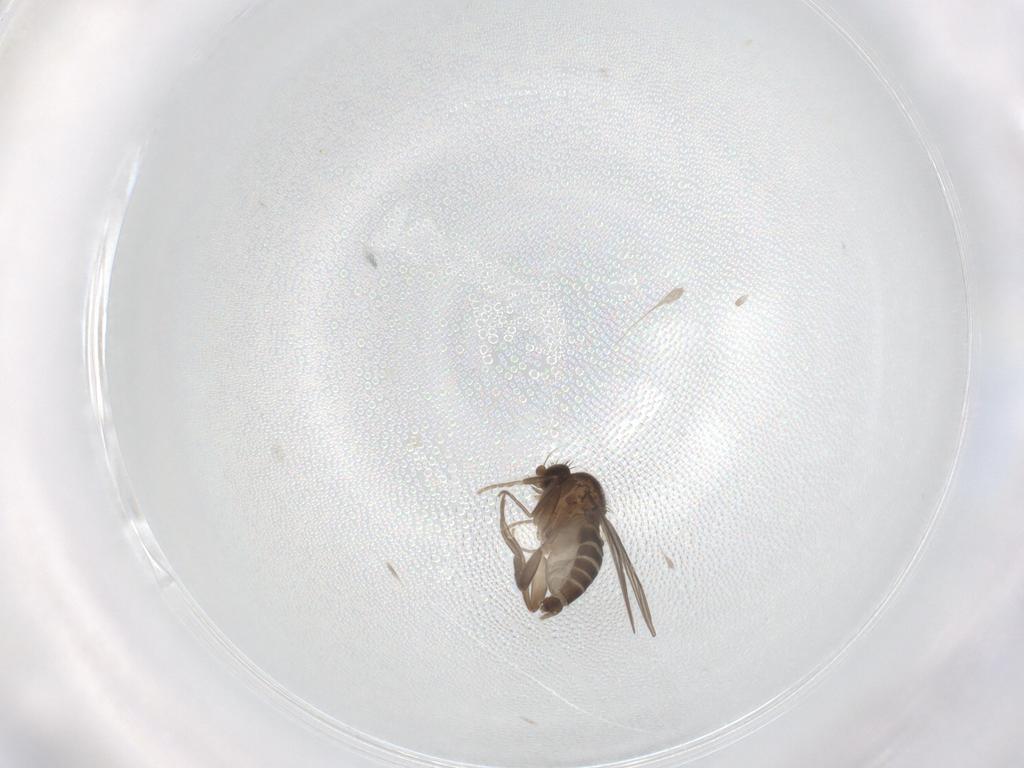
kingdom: Animalia
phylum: Arthropoda
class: Insecta
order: Diptera
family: Phoridae
